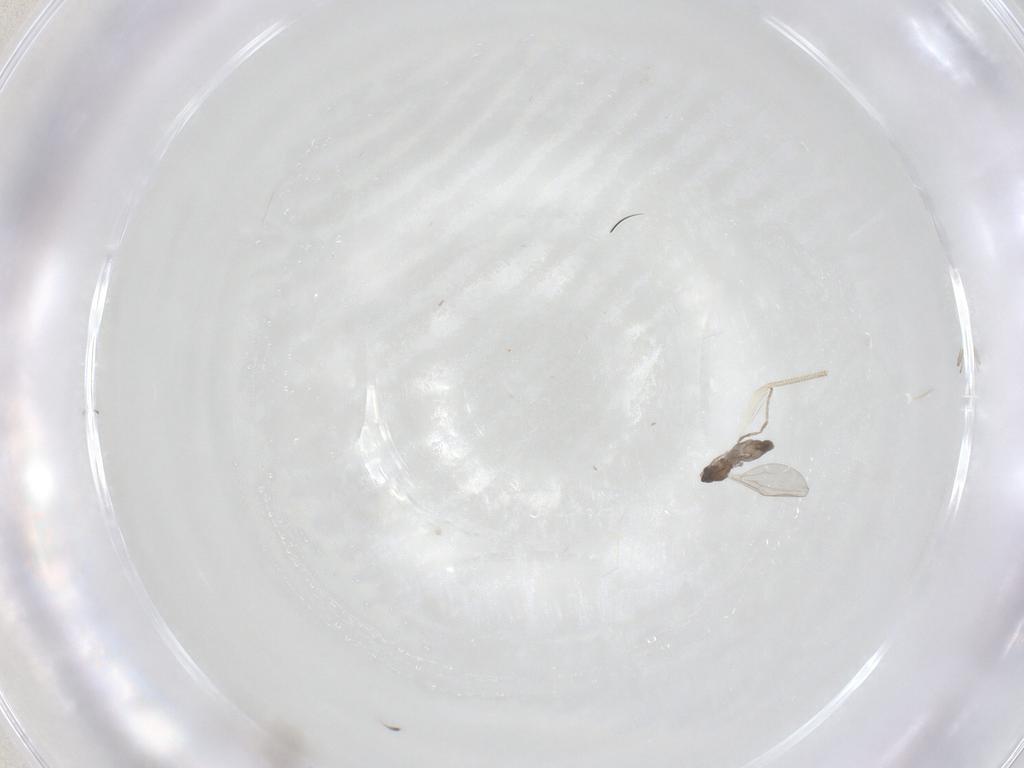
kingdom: Animalia
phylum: Arthropoda
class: Insecta
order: Thysanoptera
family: Thripidae
